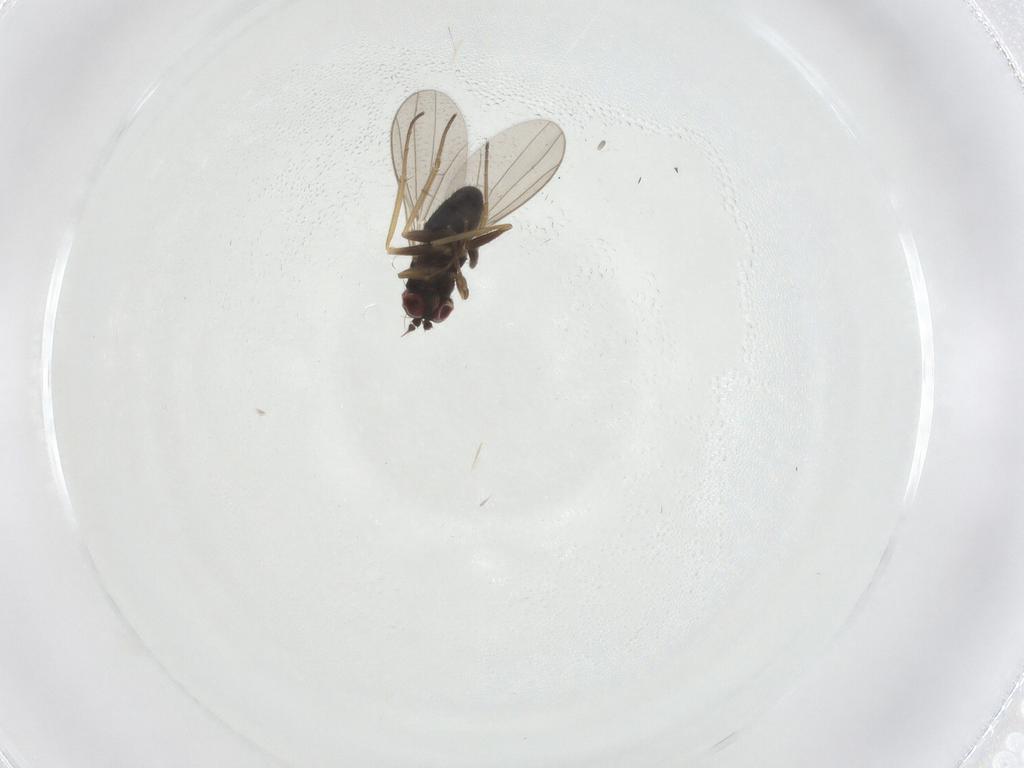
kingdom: Animalia
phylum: Arthropoda
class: Insecta
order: Diptera
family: Dolichopodidae
